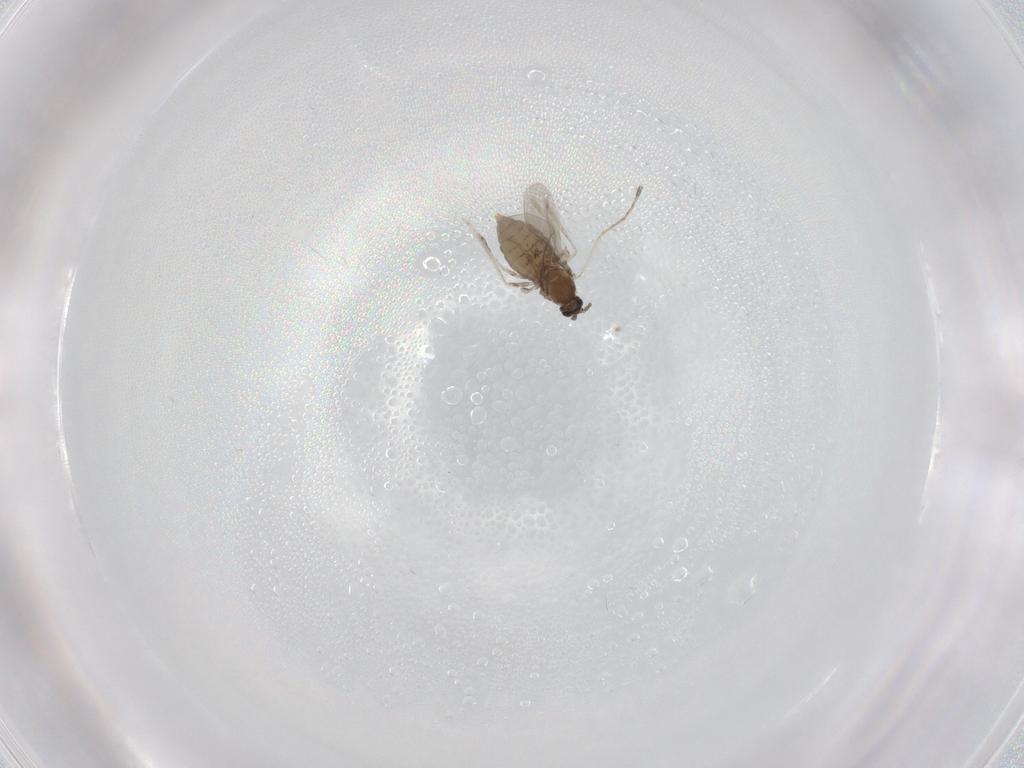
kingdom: Animalia
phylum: Arthropoda
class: Insecta
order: Diptera
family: Cecidomyiidae
